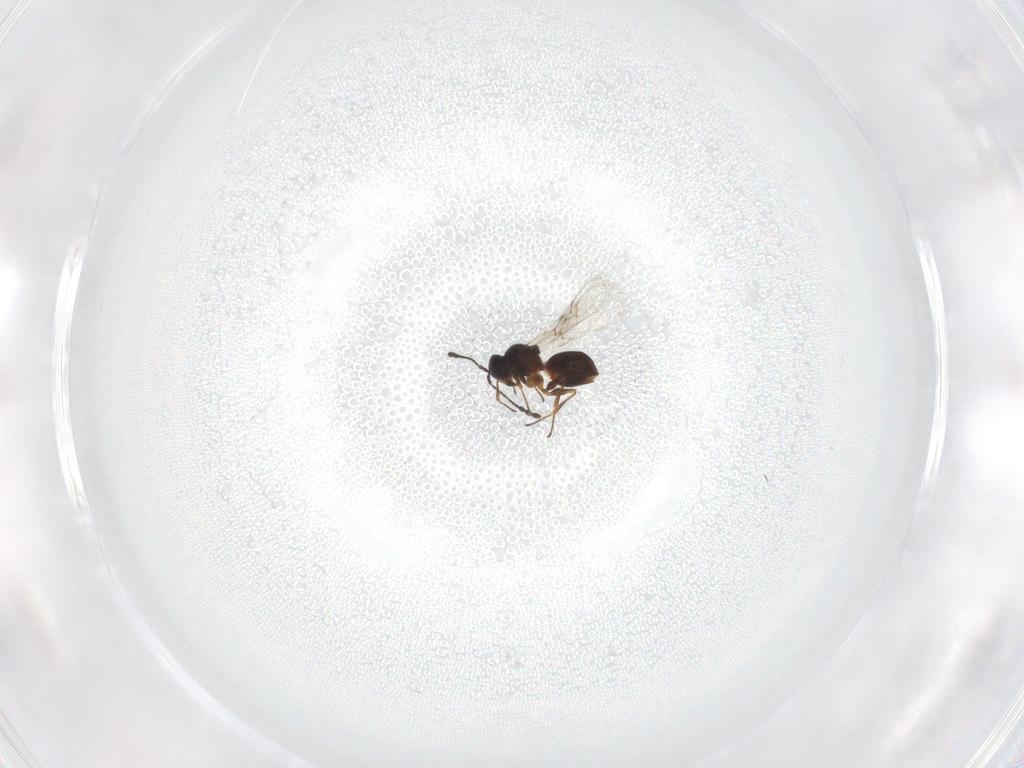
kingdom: Animalia
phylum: Arthropoda
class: Insecta
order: Hymenoptera
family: Figitidae
